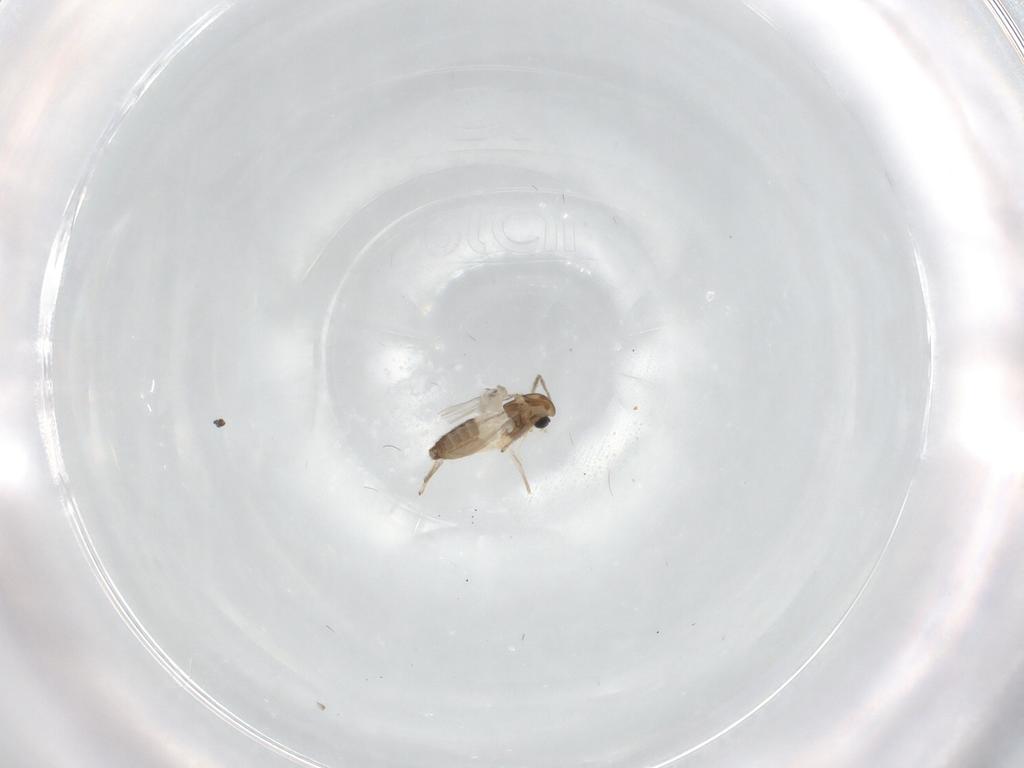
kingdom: Animalia
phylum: Arthropoda
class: Insecta
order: Diptera
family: Chironomidae
